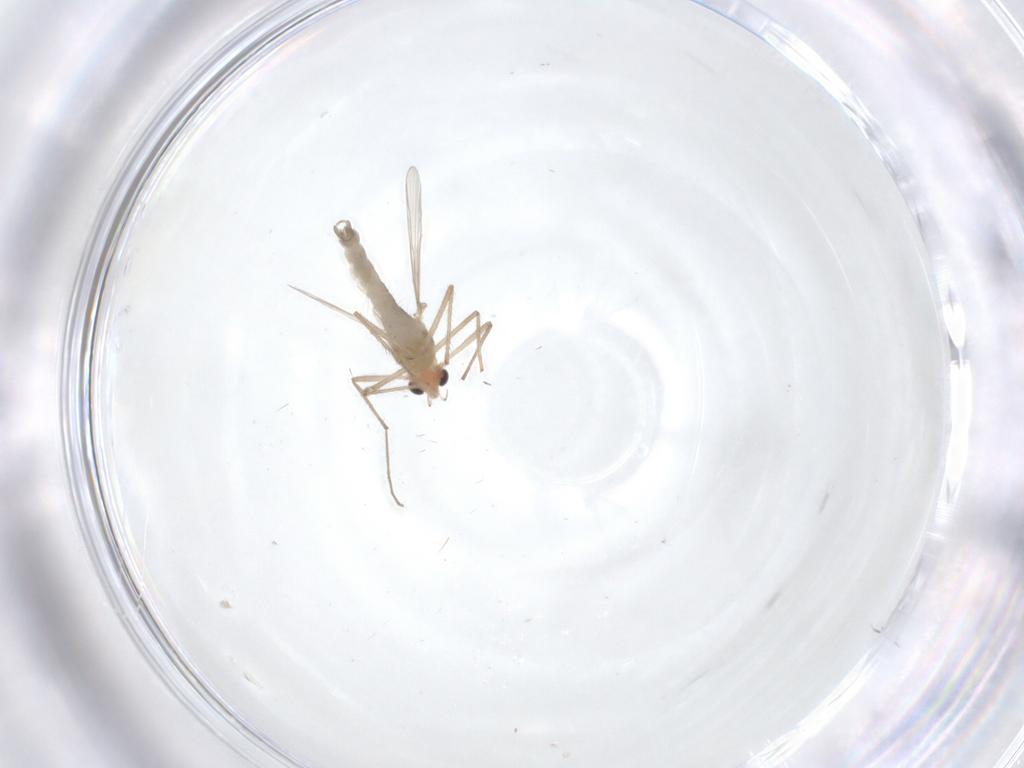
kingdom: Animalia
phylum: Arthropoda
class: Insecta
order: Diptera
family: Chironomidae
